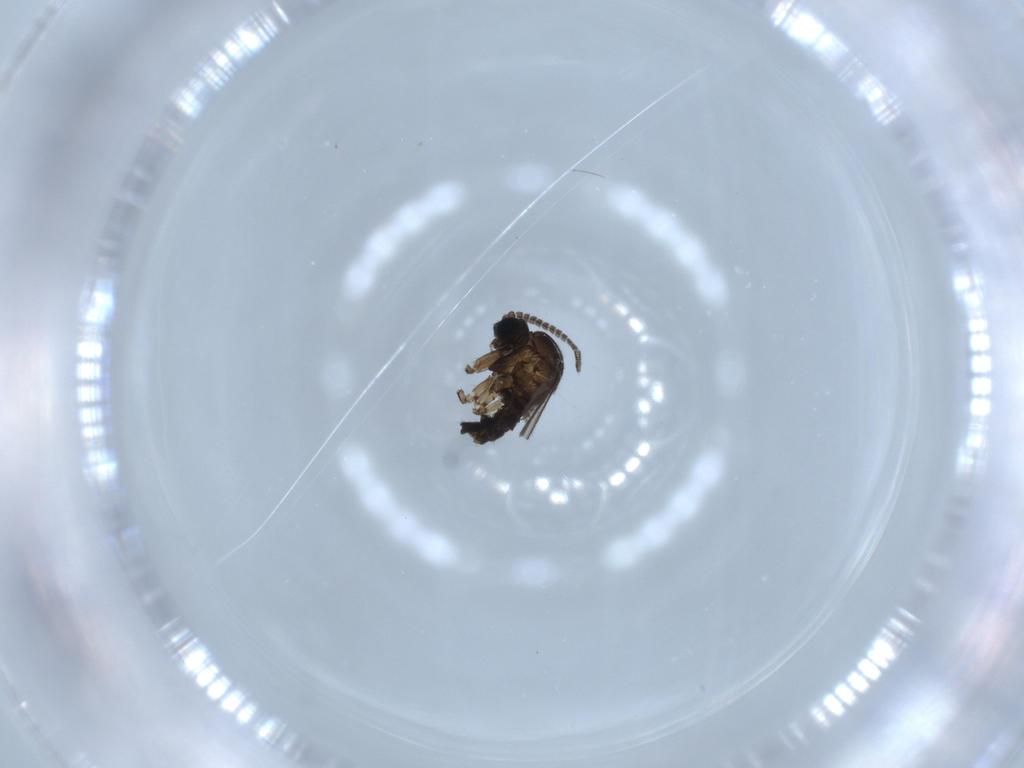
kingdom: Animalia
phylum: Arthropoda
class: Insecta
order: Diptera
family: Sciaridae
